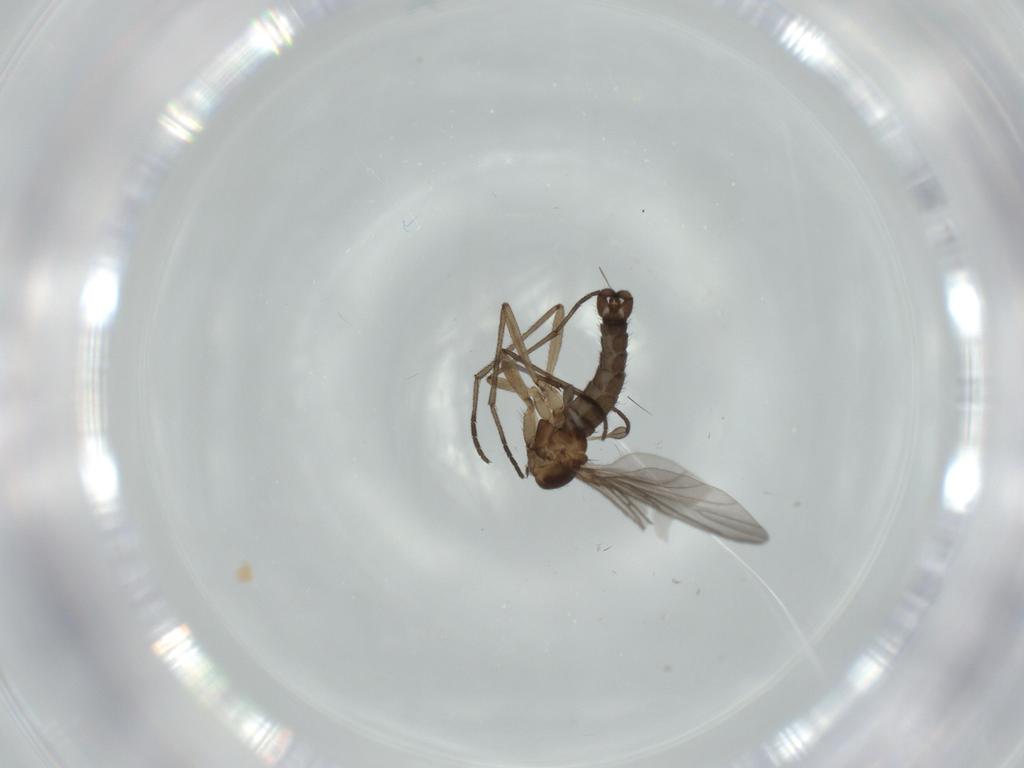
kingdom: Animalia
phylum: Arthropoda
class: Insecta
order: Diptera
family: Sciaridae
